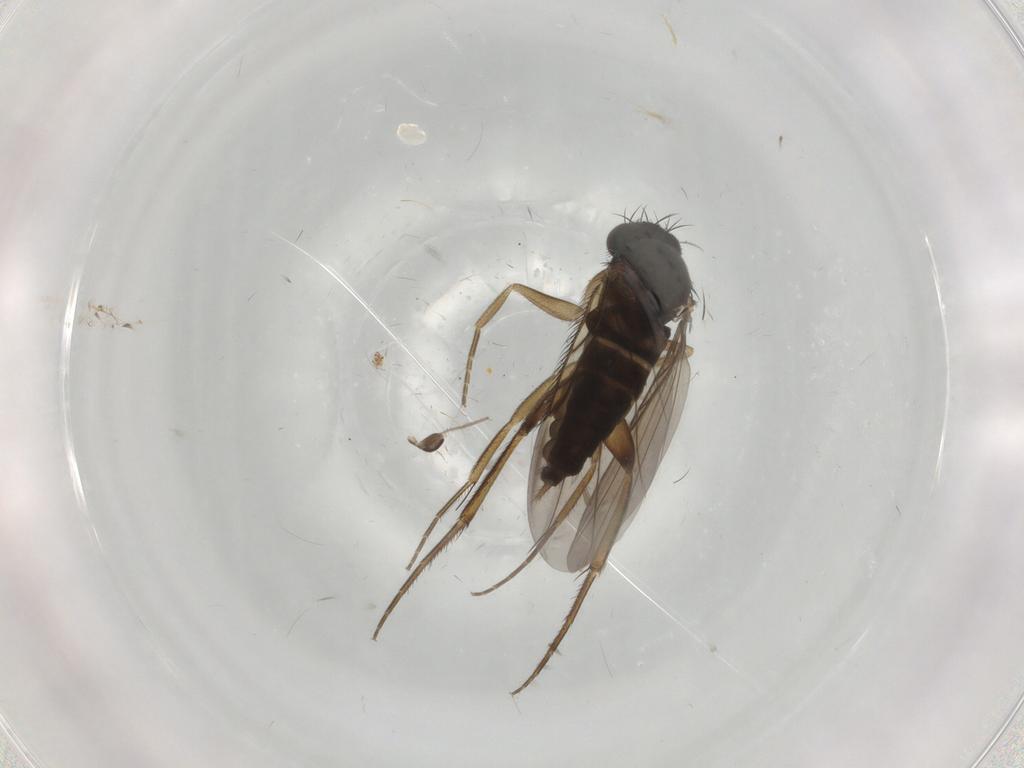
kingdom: Animalia
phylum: Arthropoda
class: Insecta
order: Diptera
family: Phoridae
